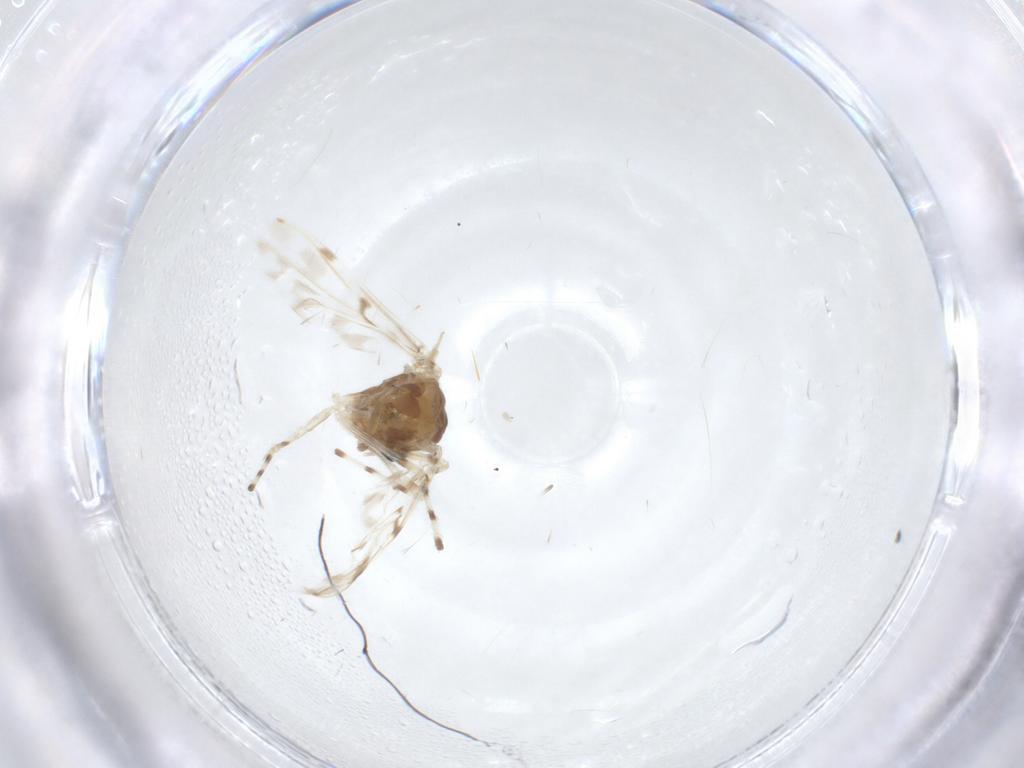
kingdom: Animalia
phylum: Arthropoda
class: Insecta
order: Diptera
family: Chironomidae
